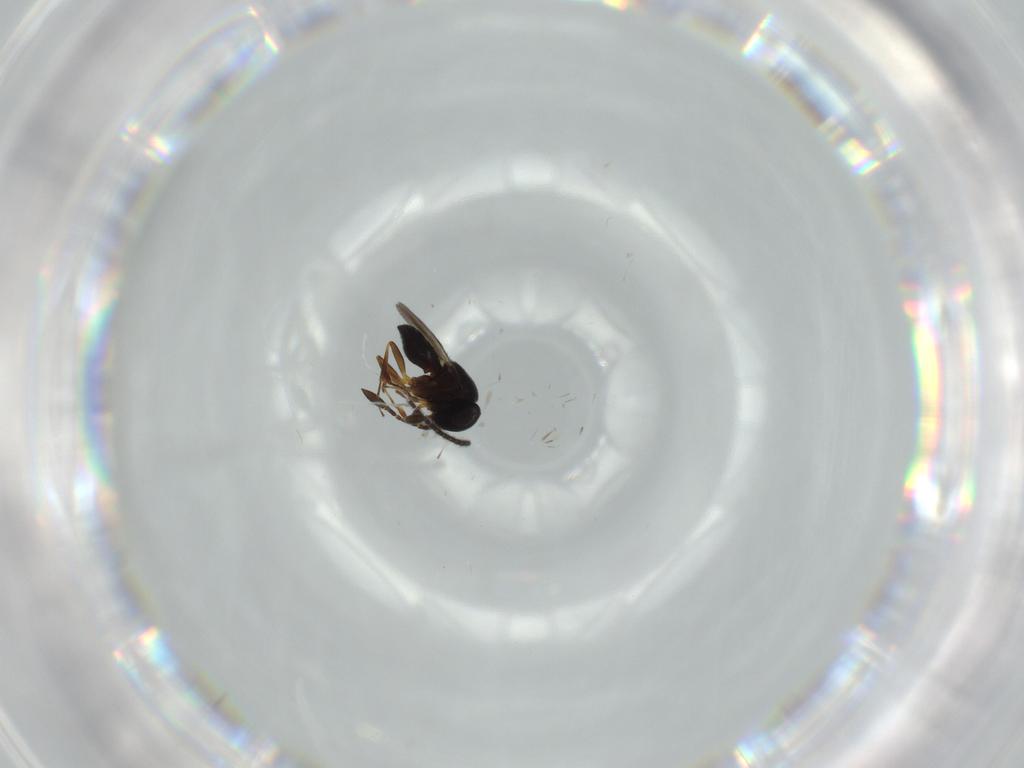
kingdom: Animalia
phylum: Arthropoda
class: Insecta
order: Coleoptera
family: Curculionidae
